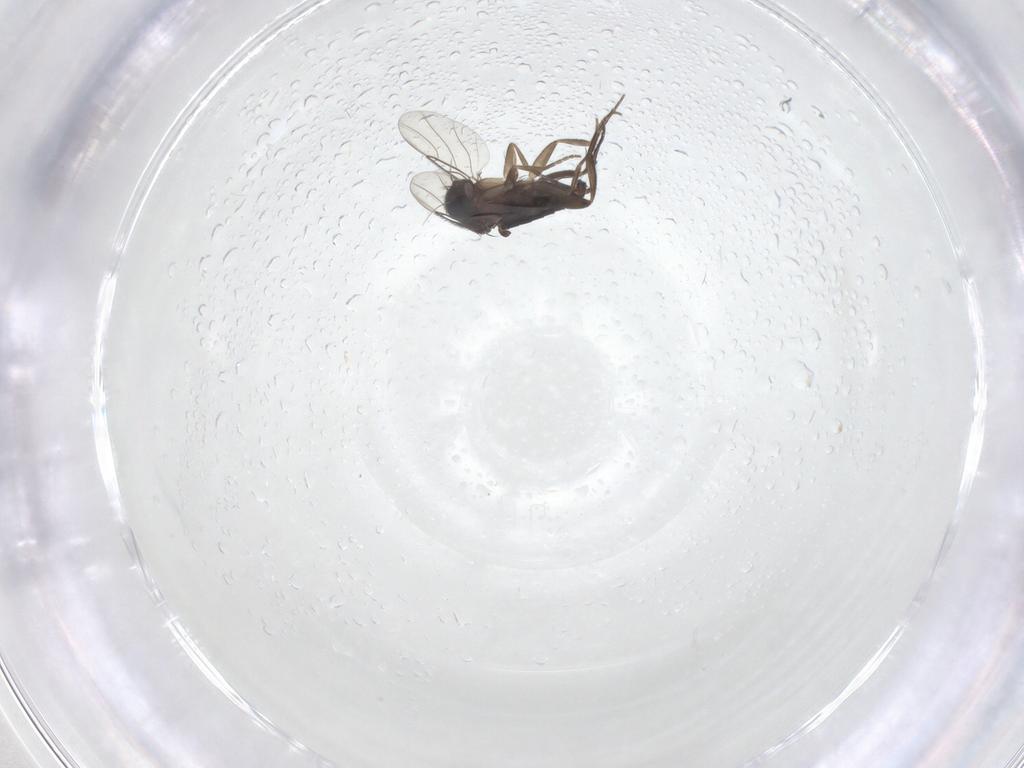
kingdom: Animalia
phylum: Arthropoda
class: Insecta
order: Diptera
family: Phoridae
